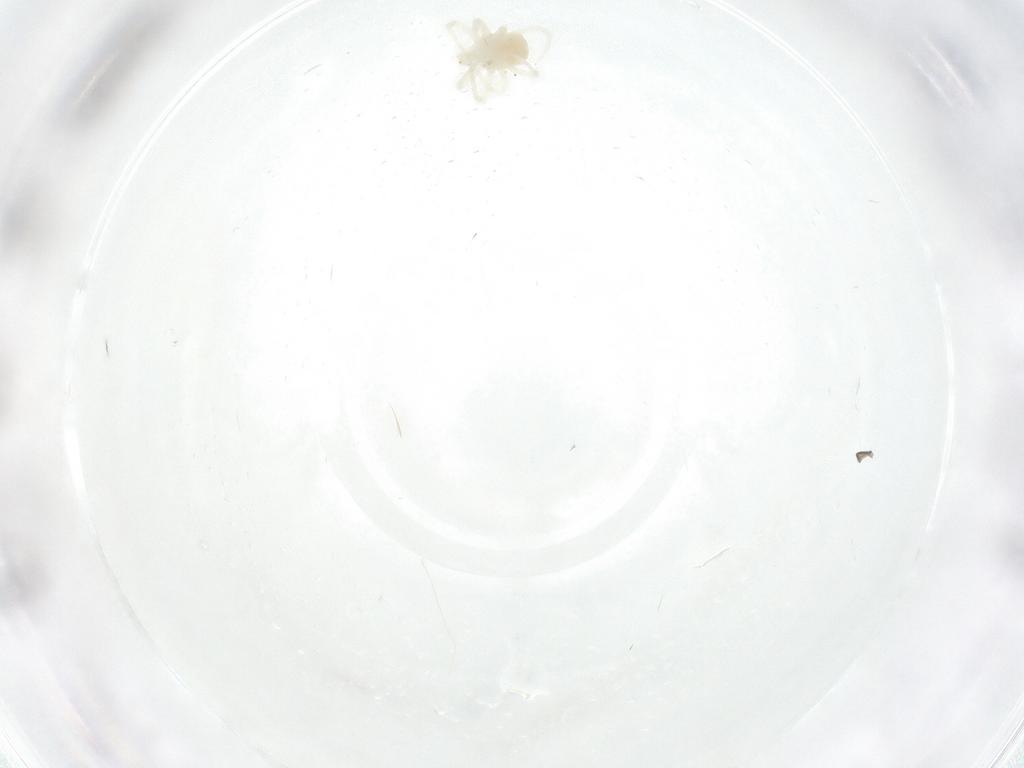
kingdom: Animalia
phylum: Arthropoda
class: Arachnida
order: Trombidiformes
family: Anystidae
